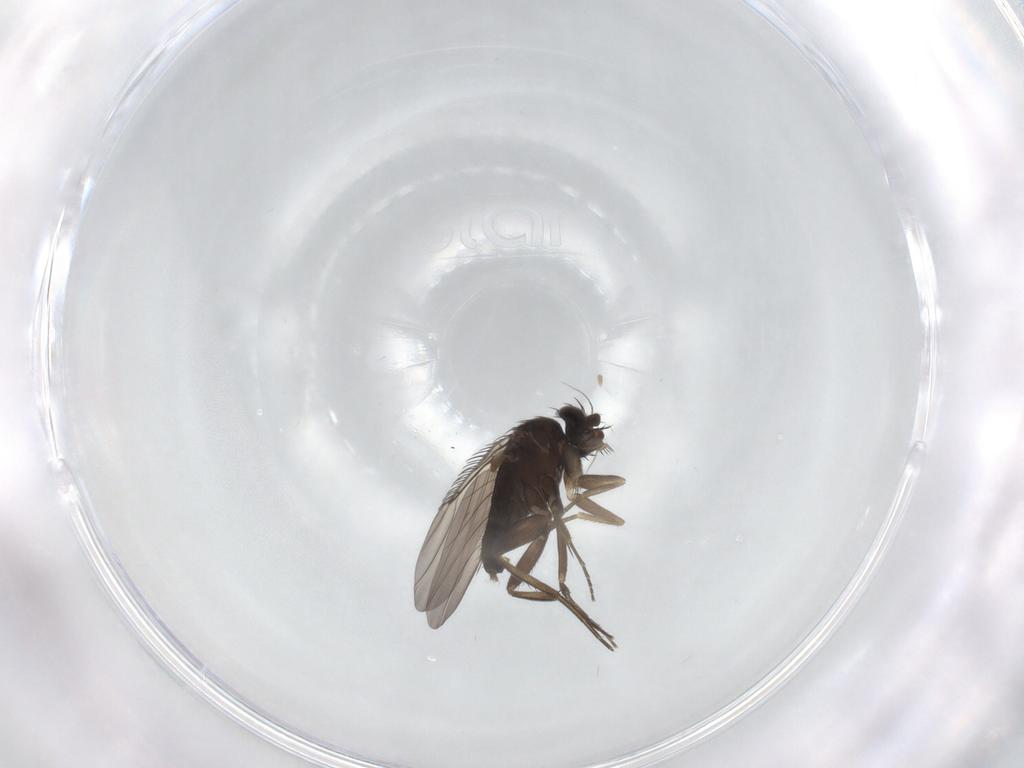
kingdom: Animalia
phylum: Arthropoda
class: Insecta
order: Diptera
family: Phoridae
